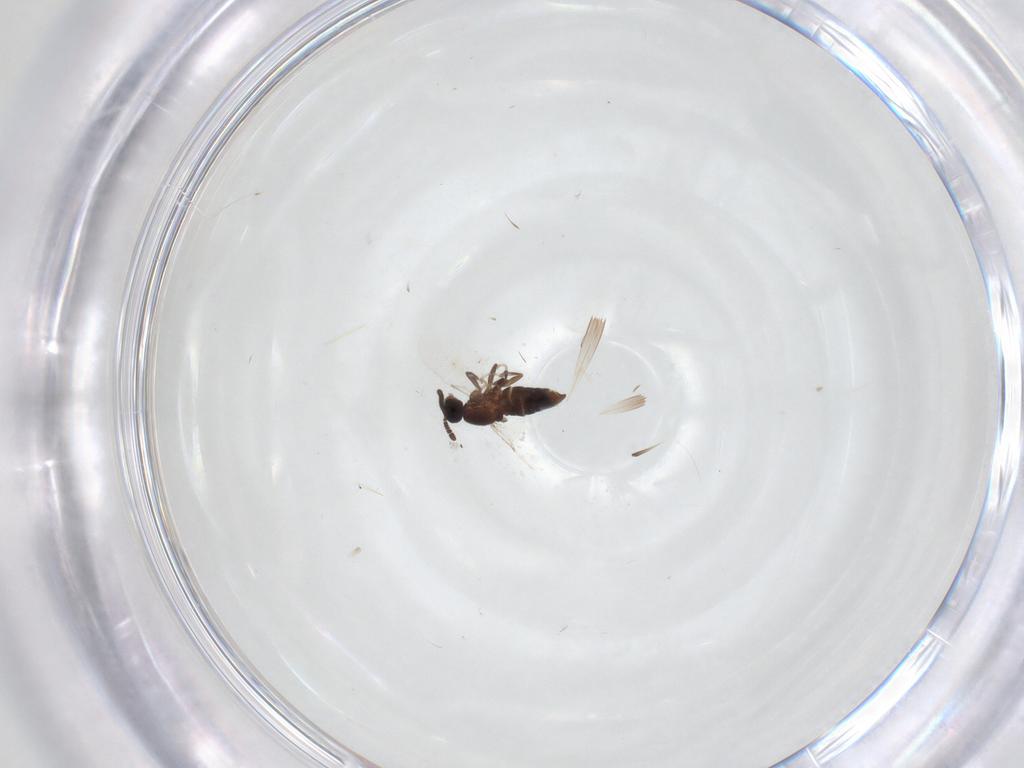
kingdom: Animalia
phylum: Arthropoda
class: Insecta
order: Diptera
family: Scatopsidae
